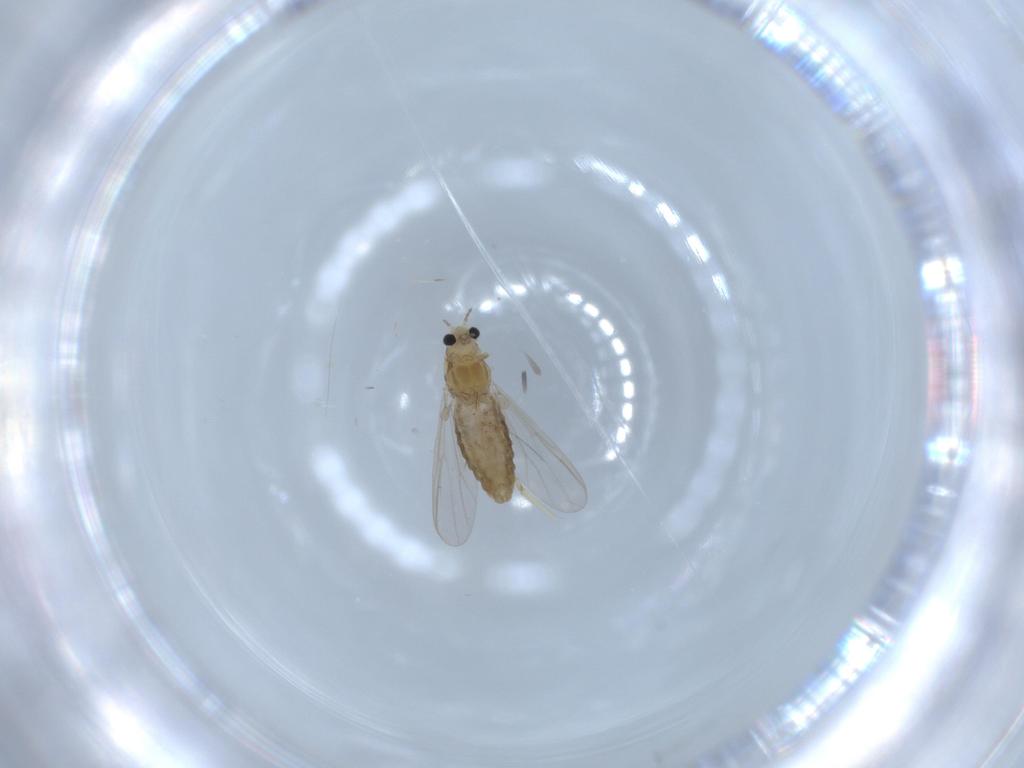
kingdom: Animalia
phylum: Arthropoda
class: Insecta
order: Diptera
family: Chironomidae
